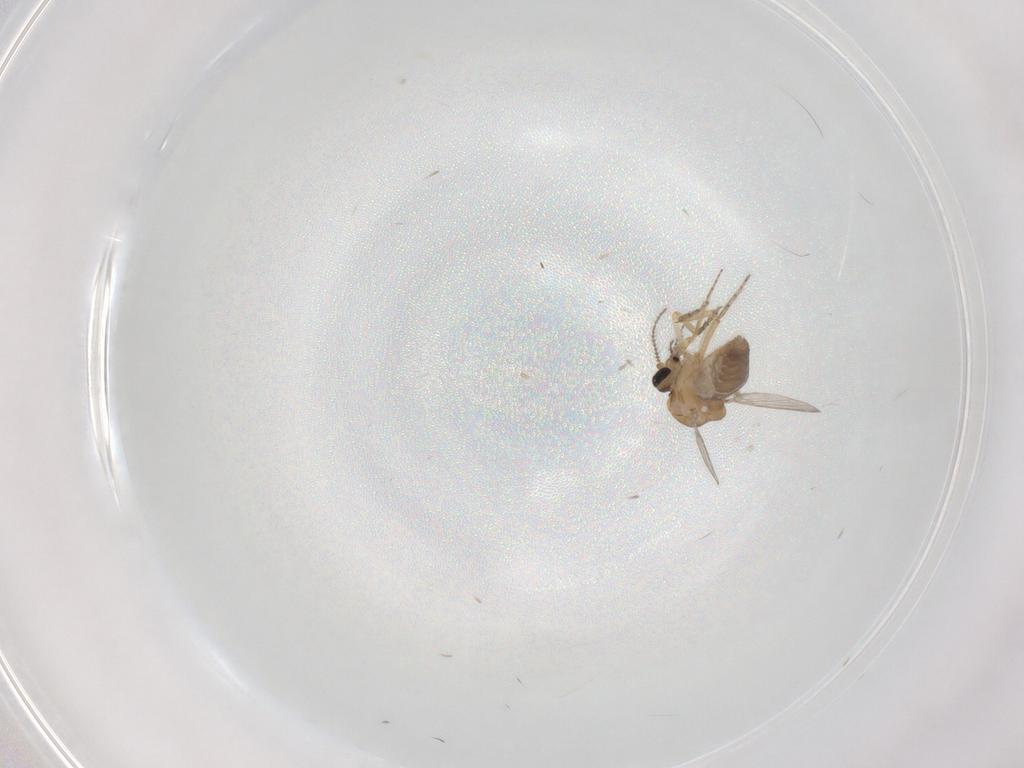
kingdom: Animalia
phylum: Arthropoda
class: Insecta
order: Diptera
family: Ceratopogonidae
